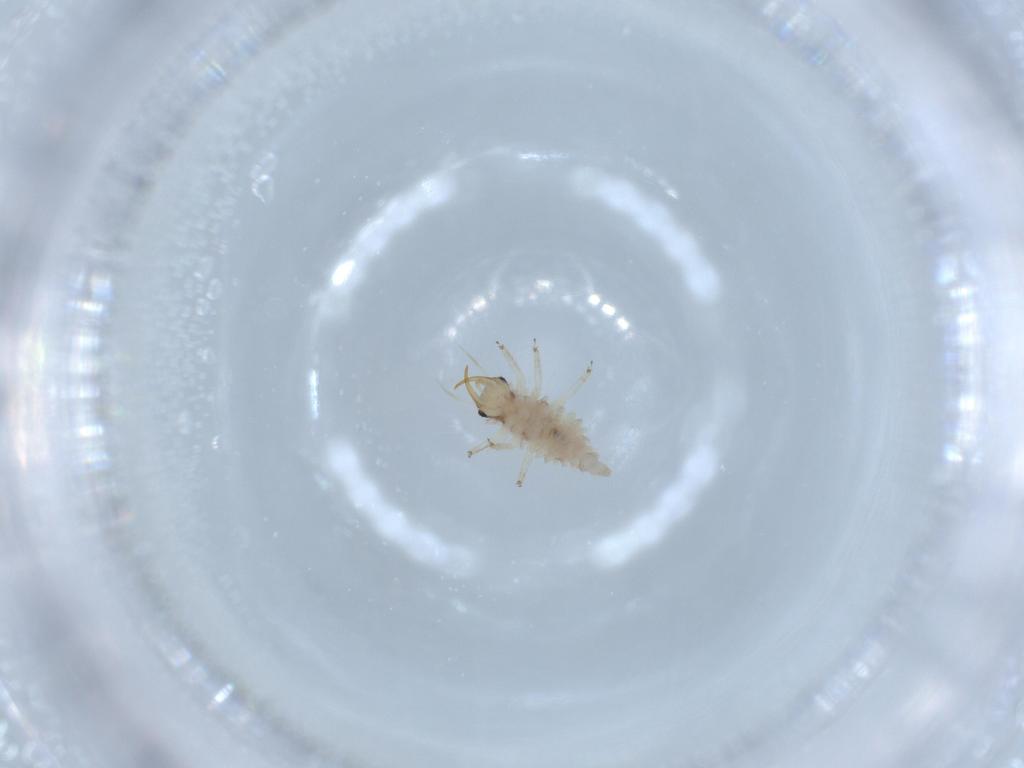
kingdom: Animalia
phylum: Arthropoda
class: Insecta
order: Neuroptera
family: Chrysopidae
